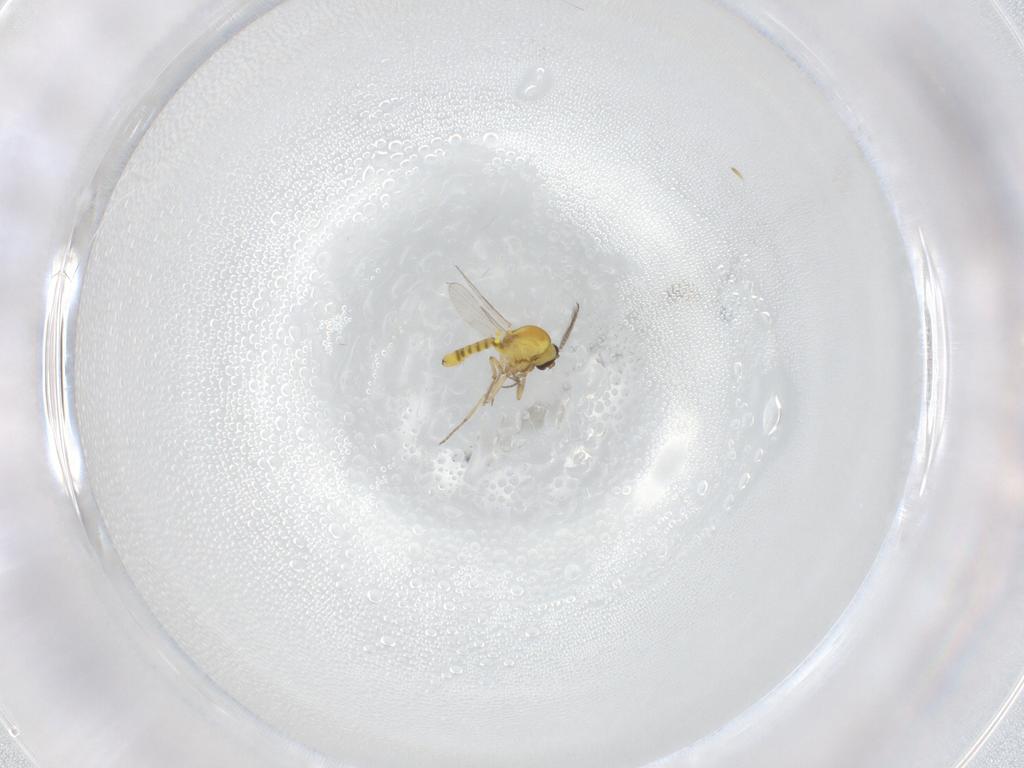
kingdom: Animalia
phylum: Arthropoda
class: Insecta
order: Diptera
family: Ceratopogonidae
